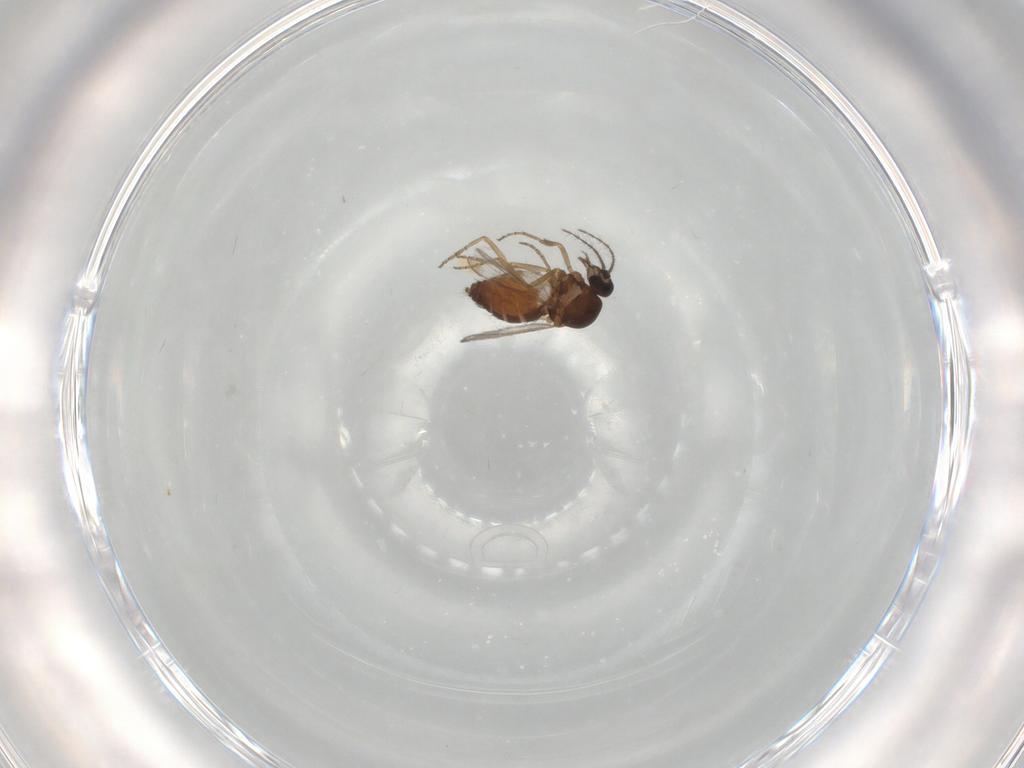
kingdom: Animalia
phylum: Arthropoda
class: Insecta
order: Diptera
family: Chironomidae
